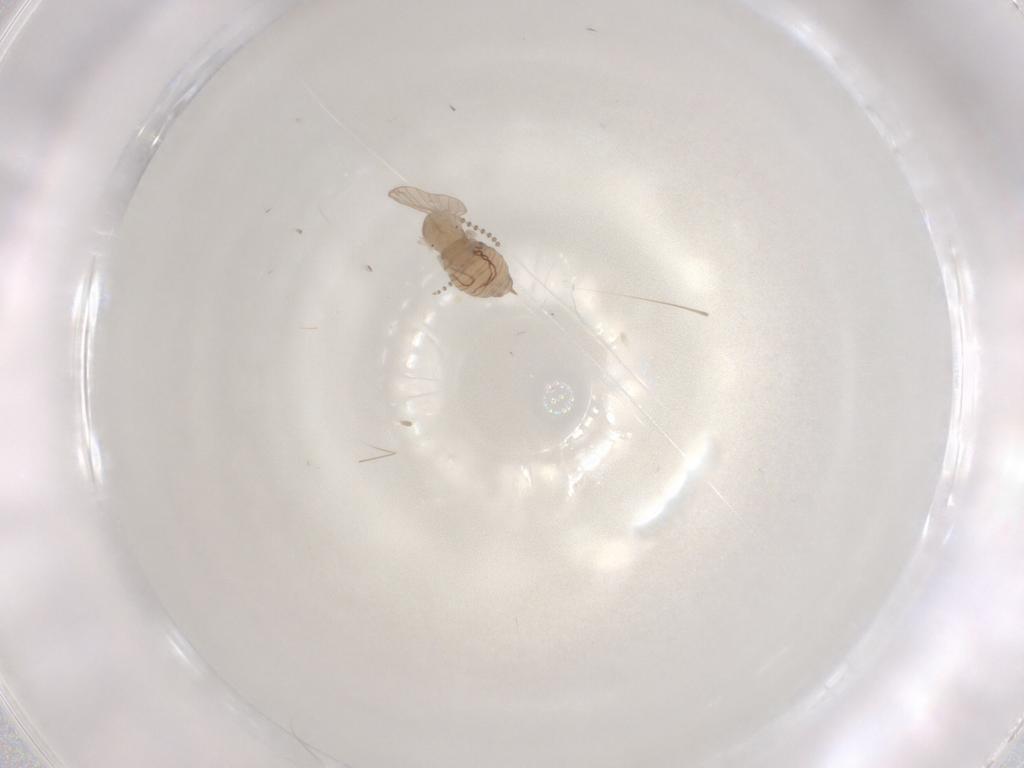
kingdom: Animalia
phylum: Arthropoda
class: Insecta
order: Diptera
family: Psychodidae
